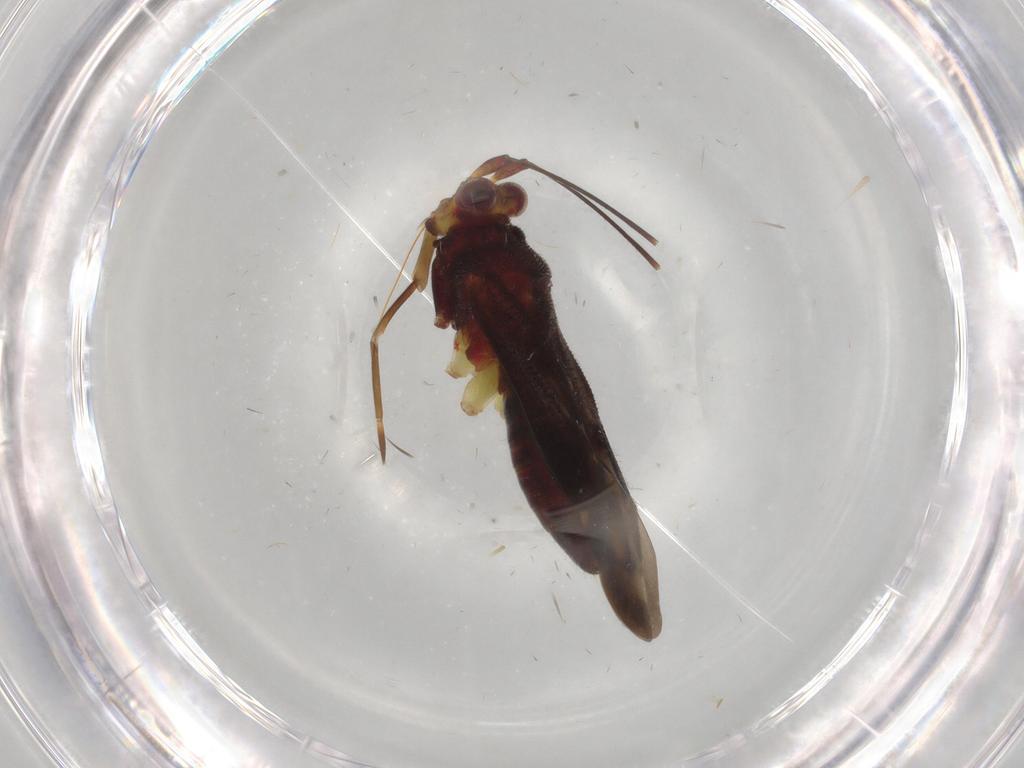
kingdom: Animalia
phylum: Arthropoda
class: Insecta
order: Hemiptera
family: Miridae
